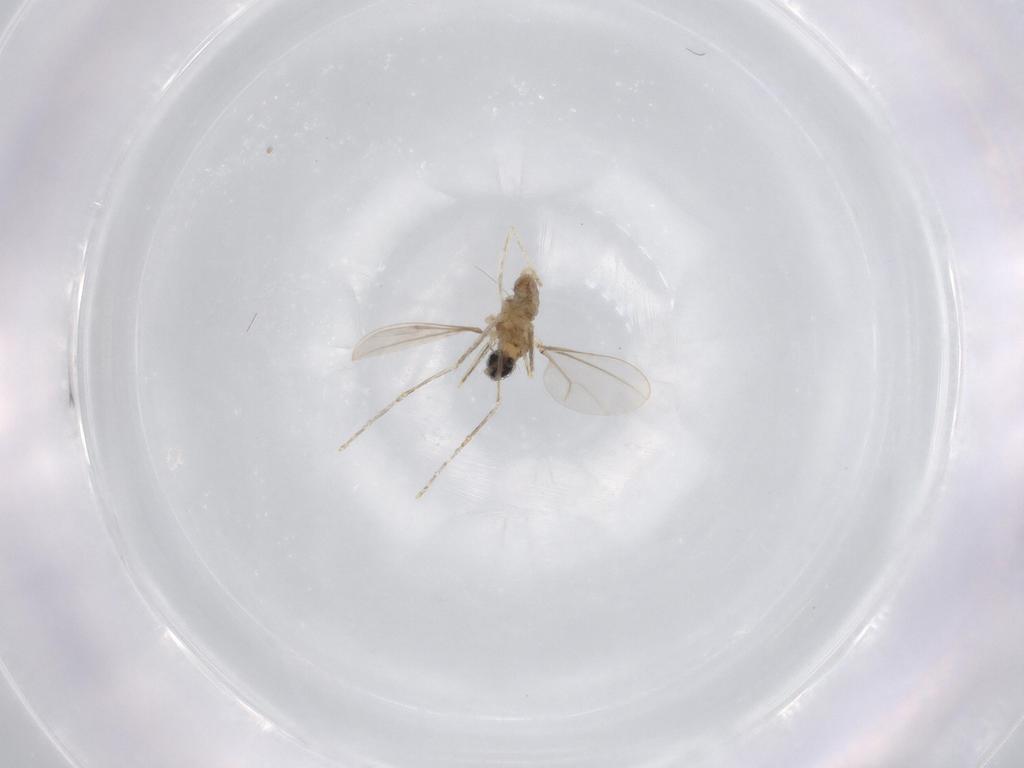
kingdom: Animalia
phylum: Arthropoda
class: Insecta
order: Diptera
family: Cecidomyiidae
